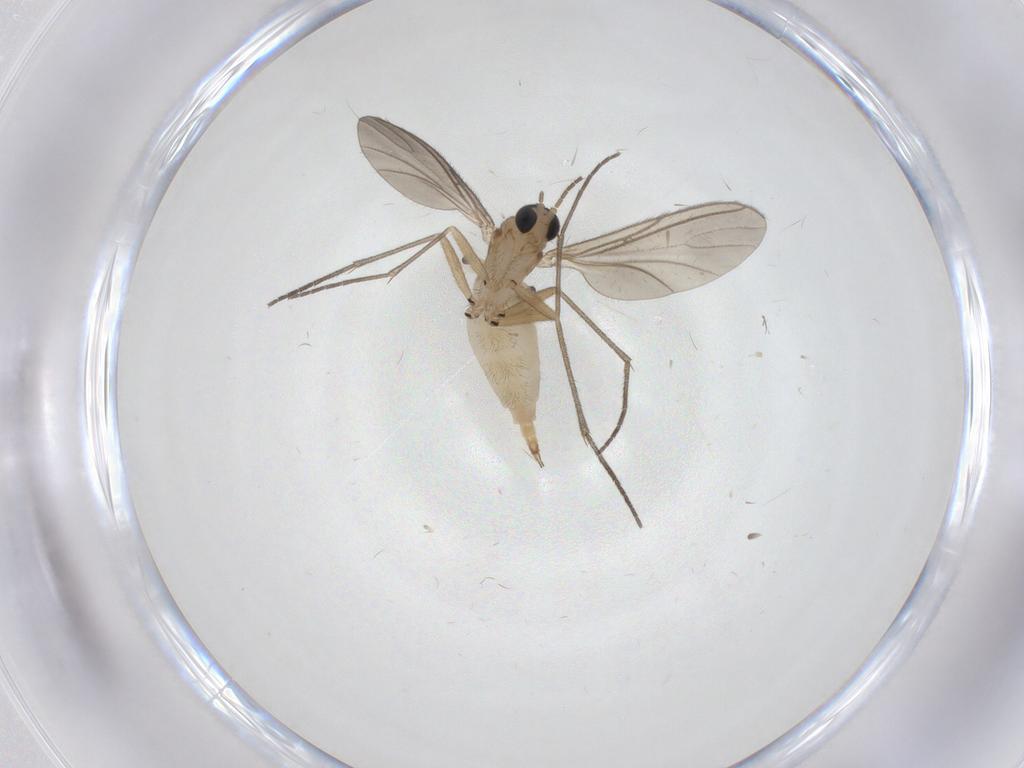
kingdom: Animalia
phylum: Arthropoda
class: Insecta
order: Diptera
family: Sciaridae
